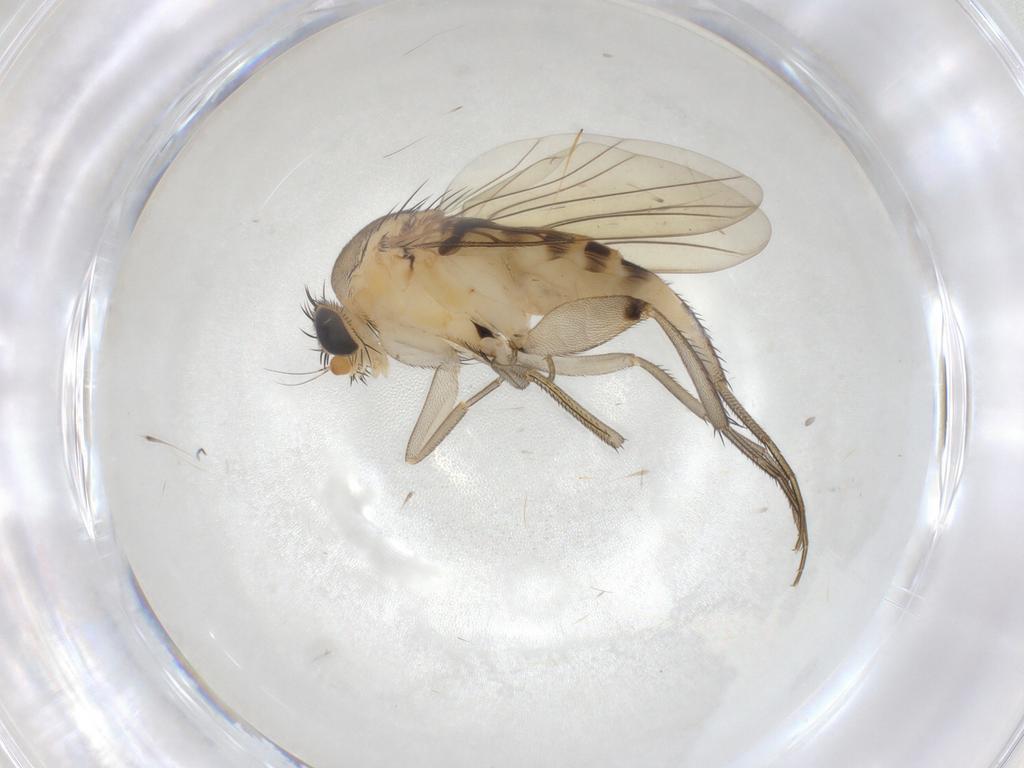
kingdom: Animalia
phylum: Arthropoda
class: Insecta
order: Diptera
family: Phoridae
